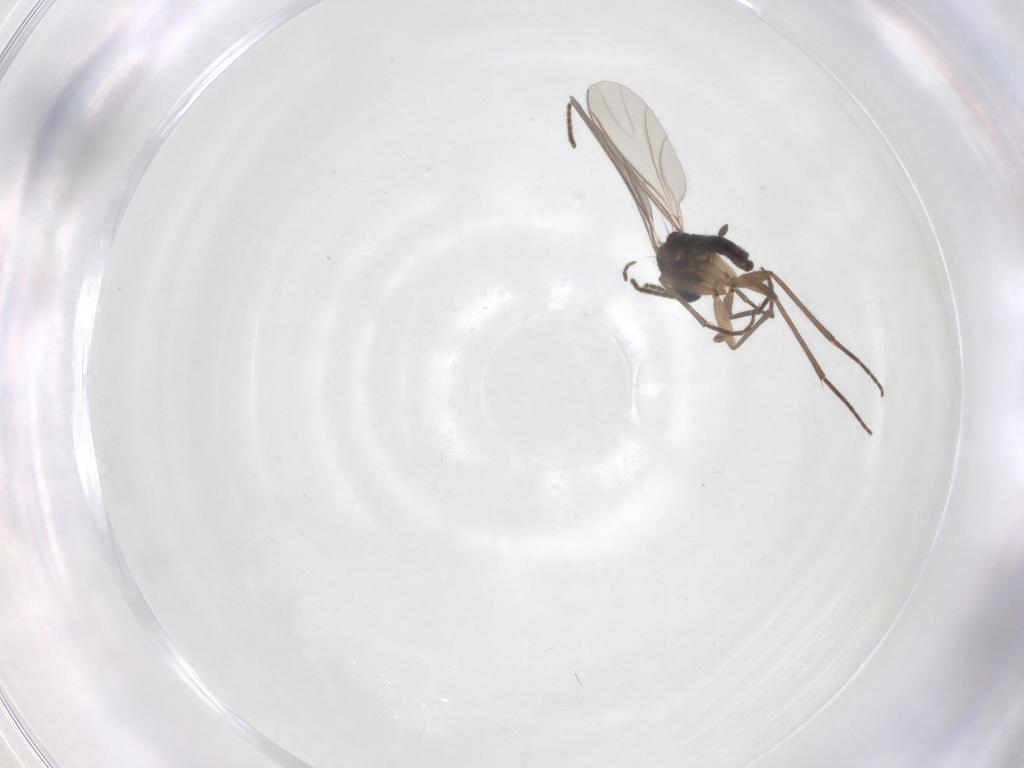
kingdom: Animalia
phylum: Arthropoda
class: Insecta
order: Diptera
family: Sciaridae
